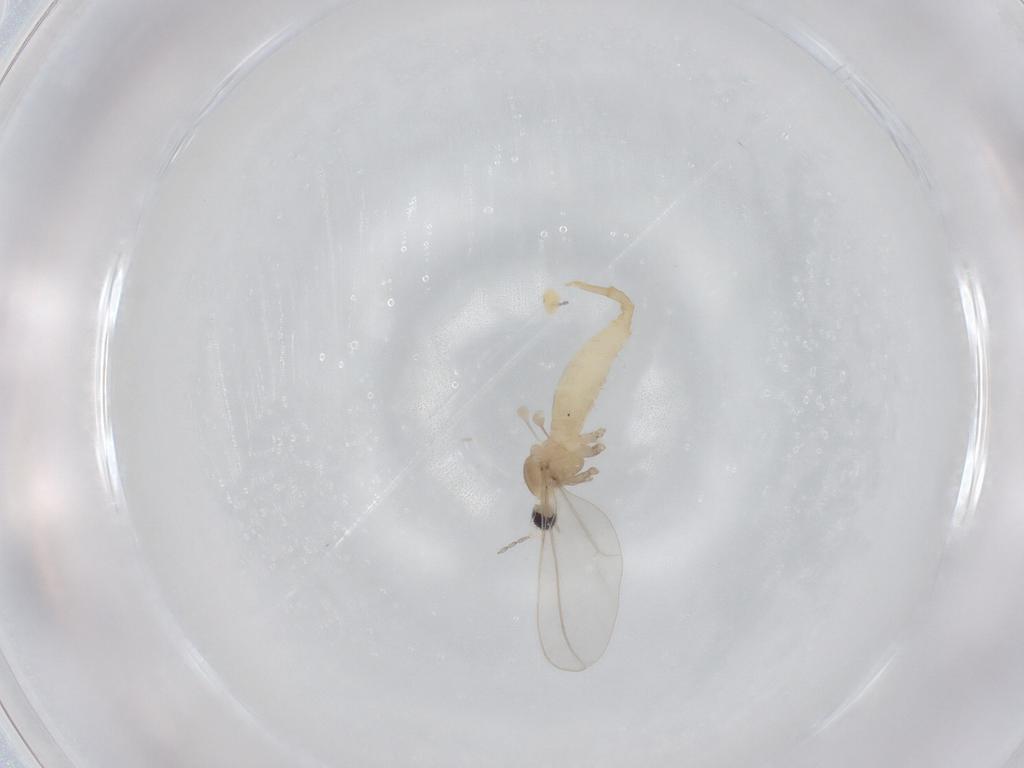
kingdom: Animalia
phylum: Arthropoda
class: Insecta
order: Diptera
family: Cecidomyiidae
